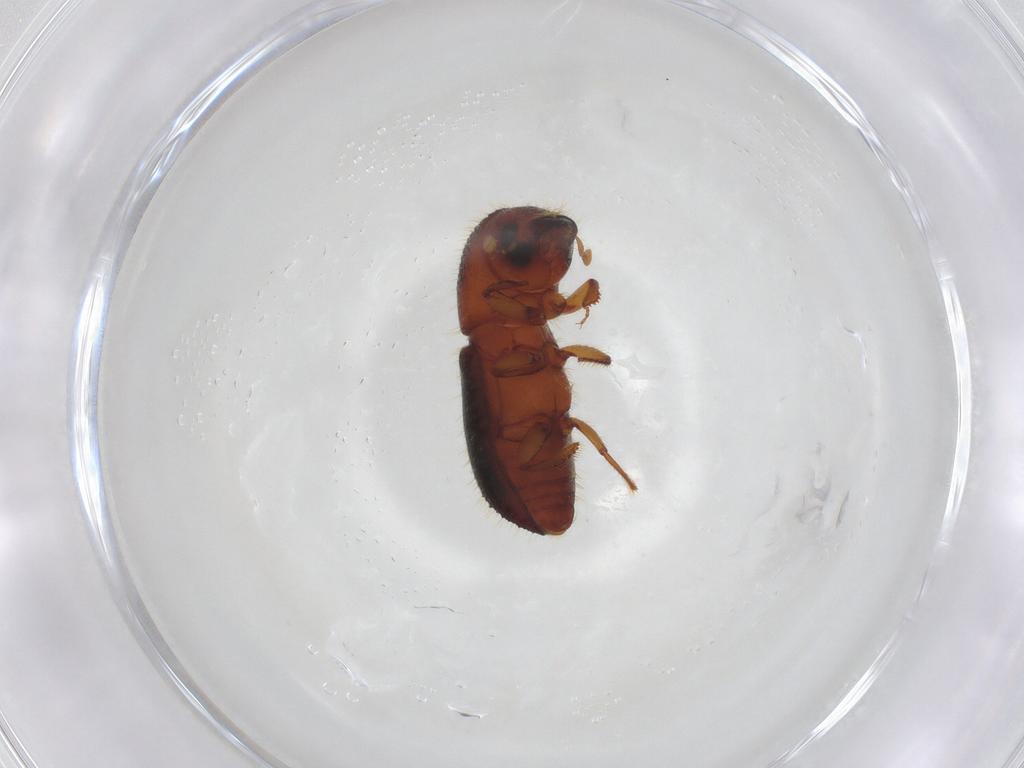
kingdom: Animalia
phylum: Arthropoda
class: Insecta
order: Coleoptera
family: Curculionidae
